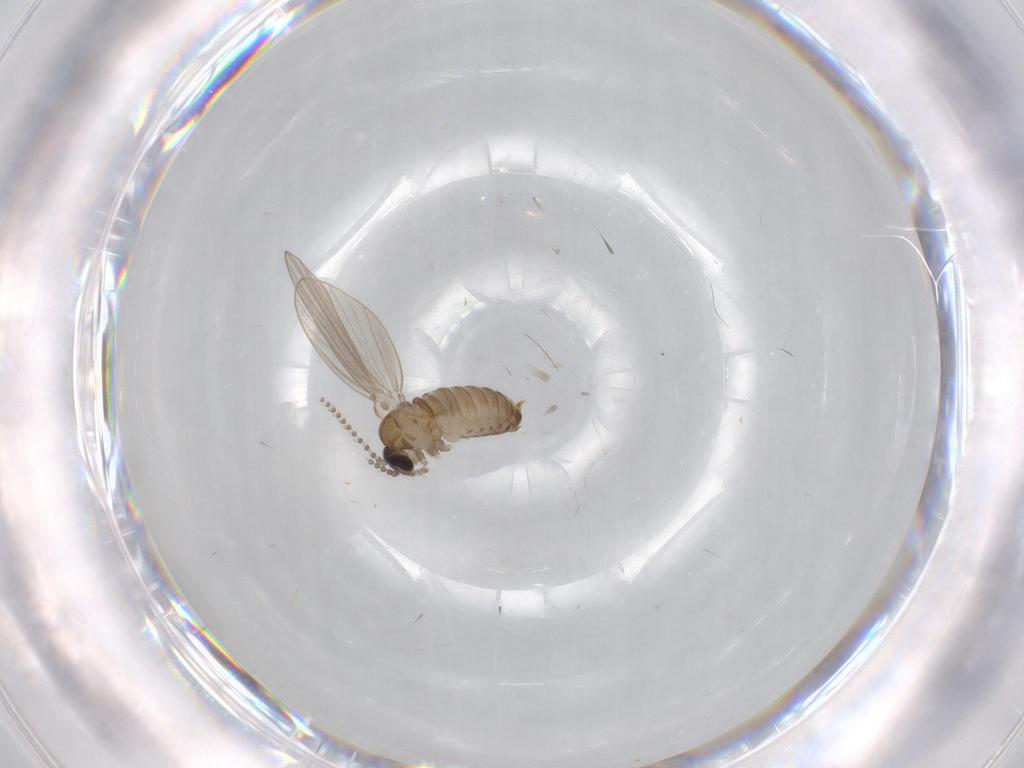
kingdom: Animalia
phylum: Arthropoda
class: Insecta
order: Diptera
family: Psychodidae
